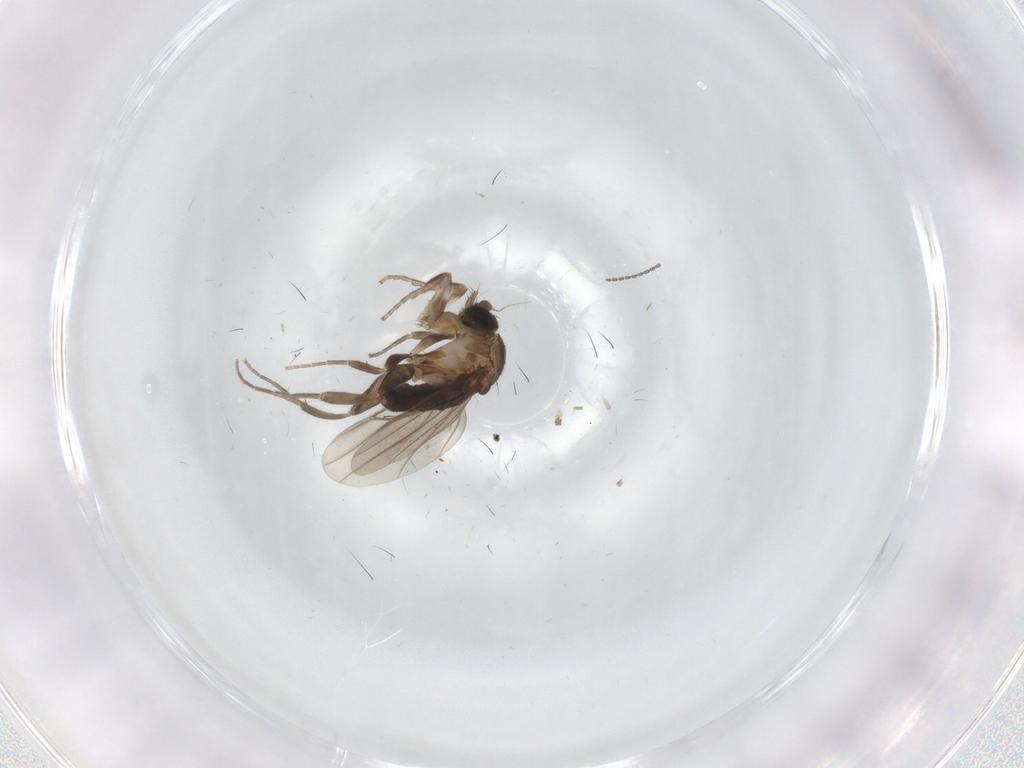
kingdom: Animalia
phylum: Arthropoda
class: Insecta
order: Diptera
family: Phoridae
